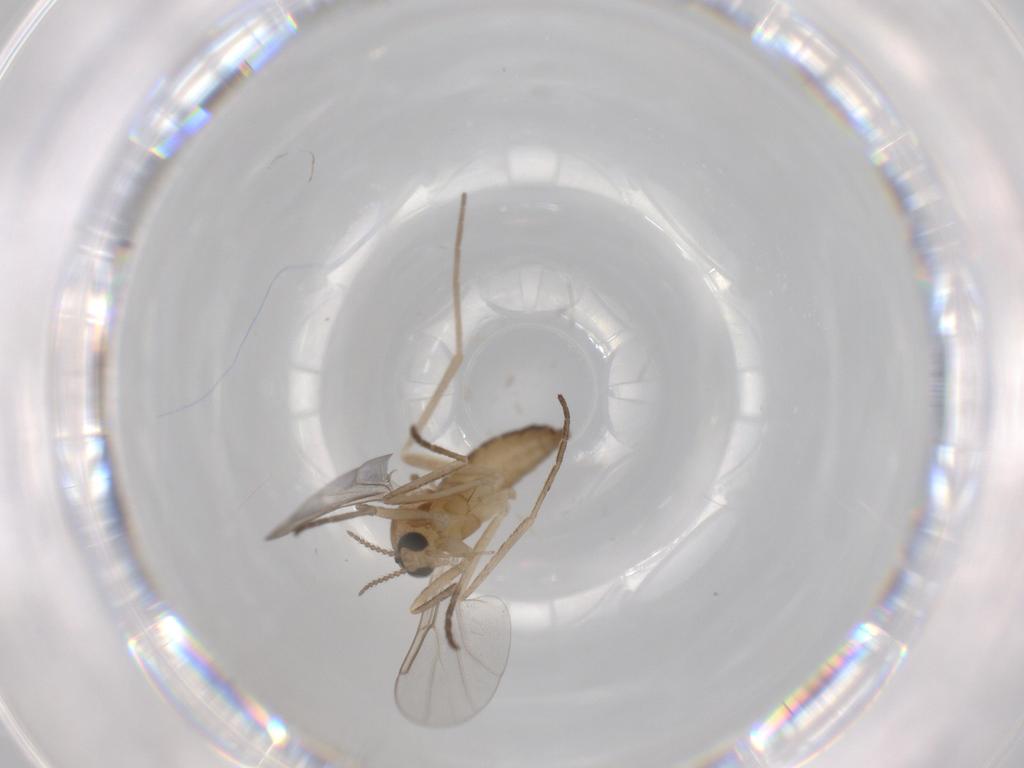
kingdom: Animalia
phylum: Arthropoda
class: Insecta
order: Diptera
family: Cecidomyiidae
